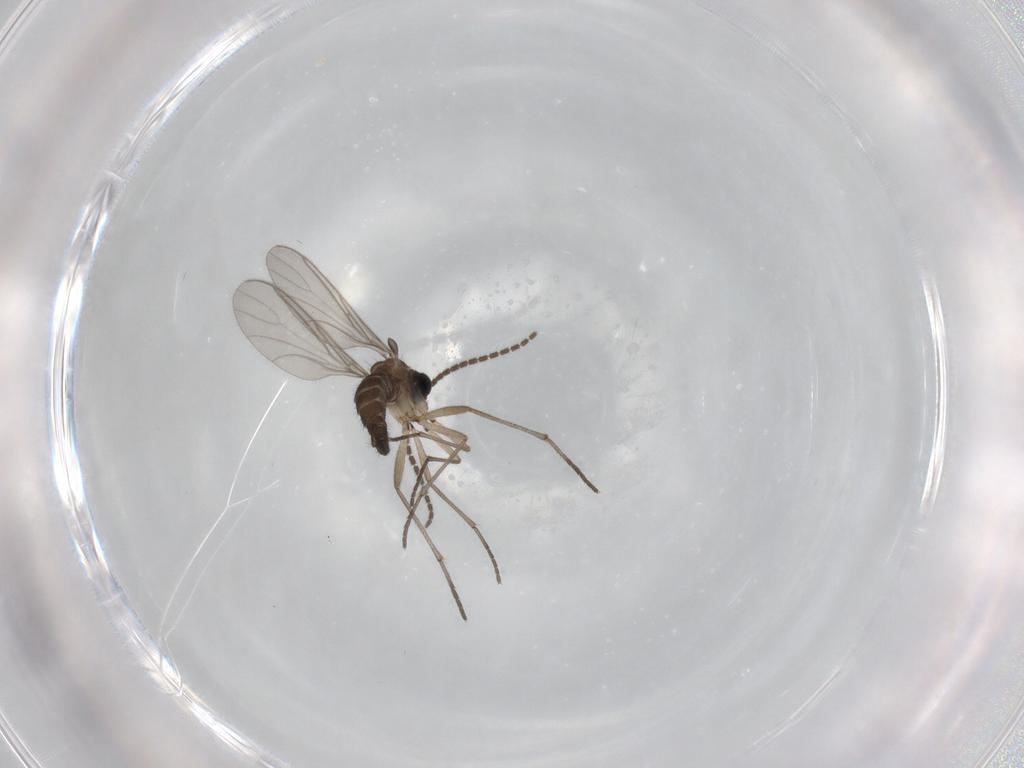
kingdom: Animalia
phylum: Arthropoda
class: Insecta
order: Diptera
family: Sciaridae
